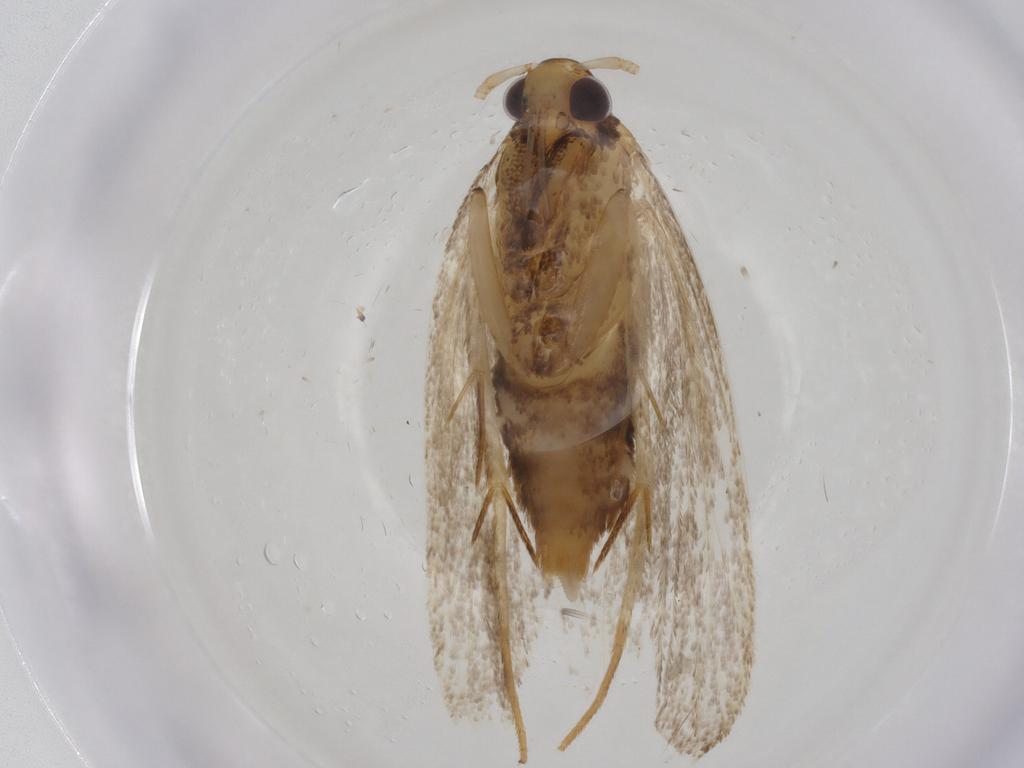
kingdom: Animalia
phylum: Arthropoda
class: Insecta
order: Lepidoptera
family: Lecithoceridae
